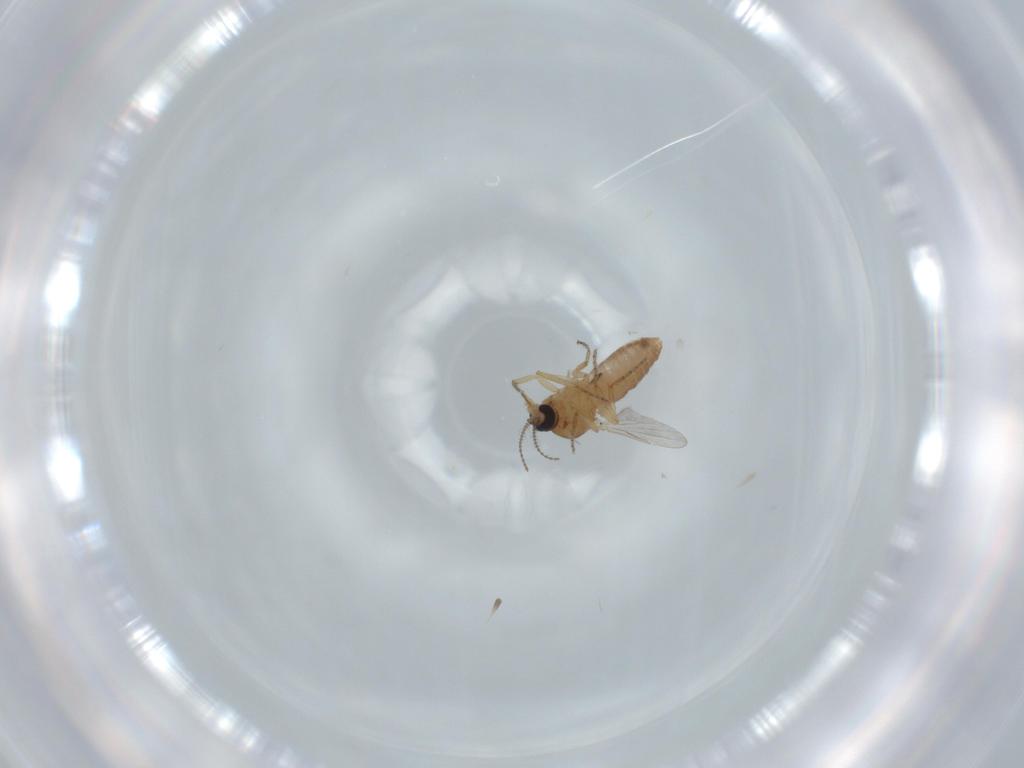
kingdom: Animalia
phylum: Arthropoda
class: Insecta
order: Diptera
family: Ceratopogonidae
